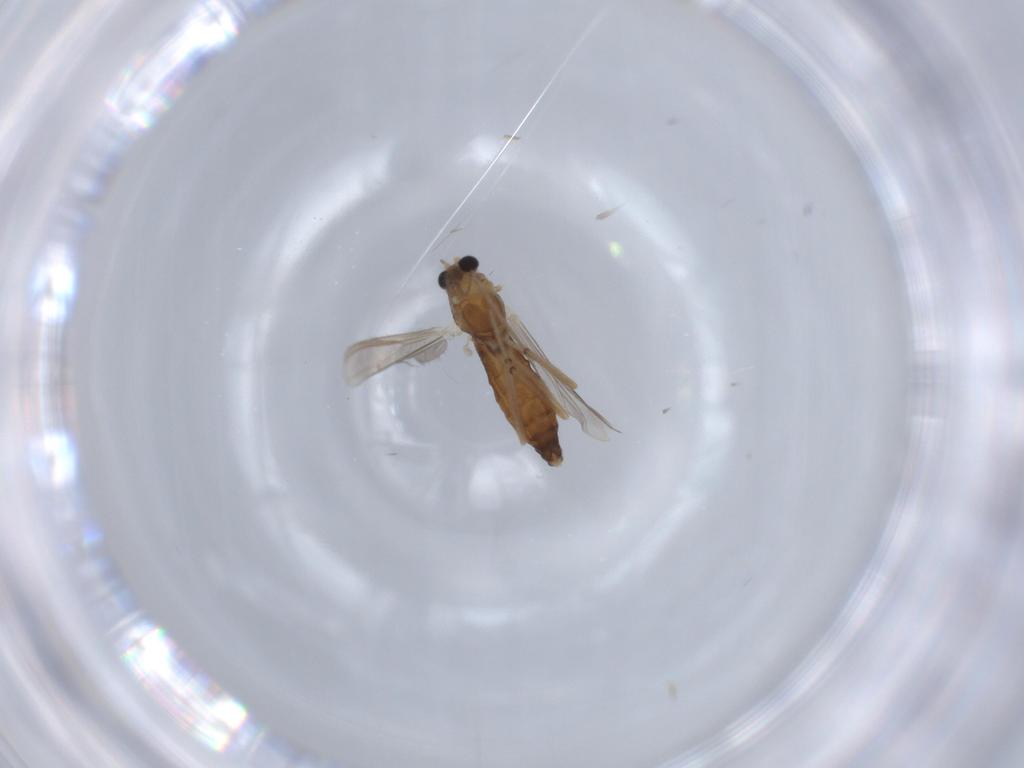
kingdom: Animalia
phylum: Arthropoda
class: Insecta
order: Diptera
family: Chironomidae
